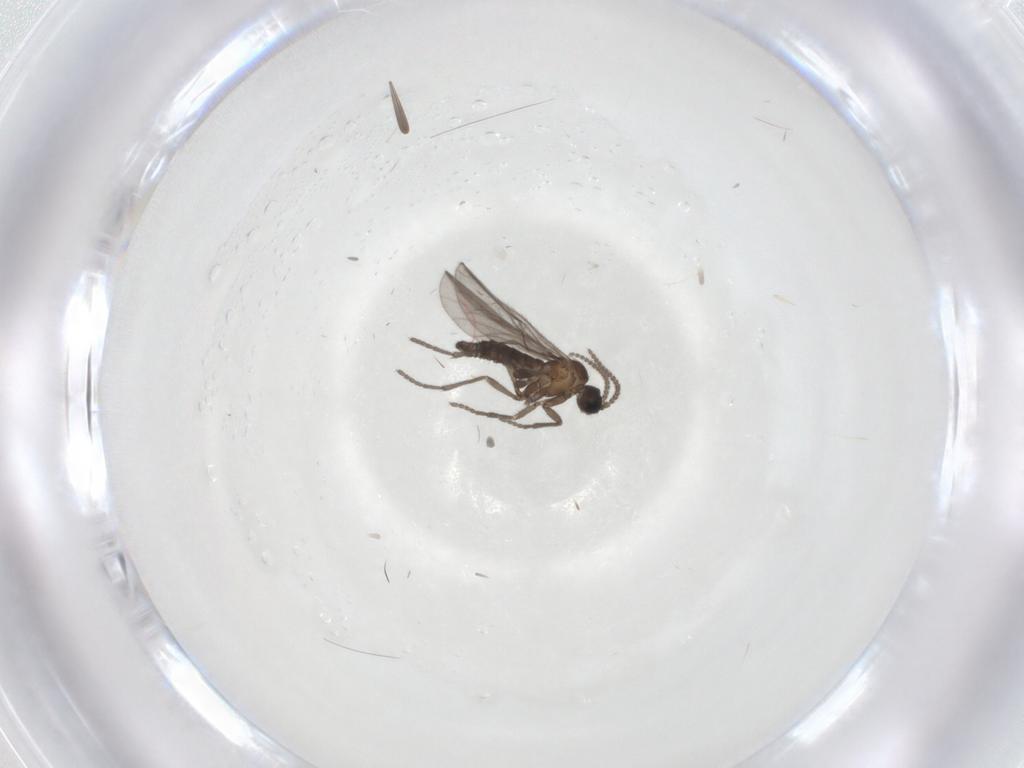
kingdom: Animalia
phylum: Arthropoda
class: Insecta
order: Diptera
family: Sciaridae
